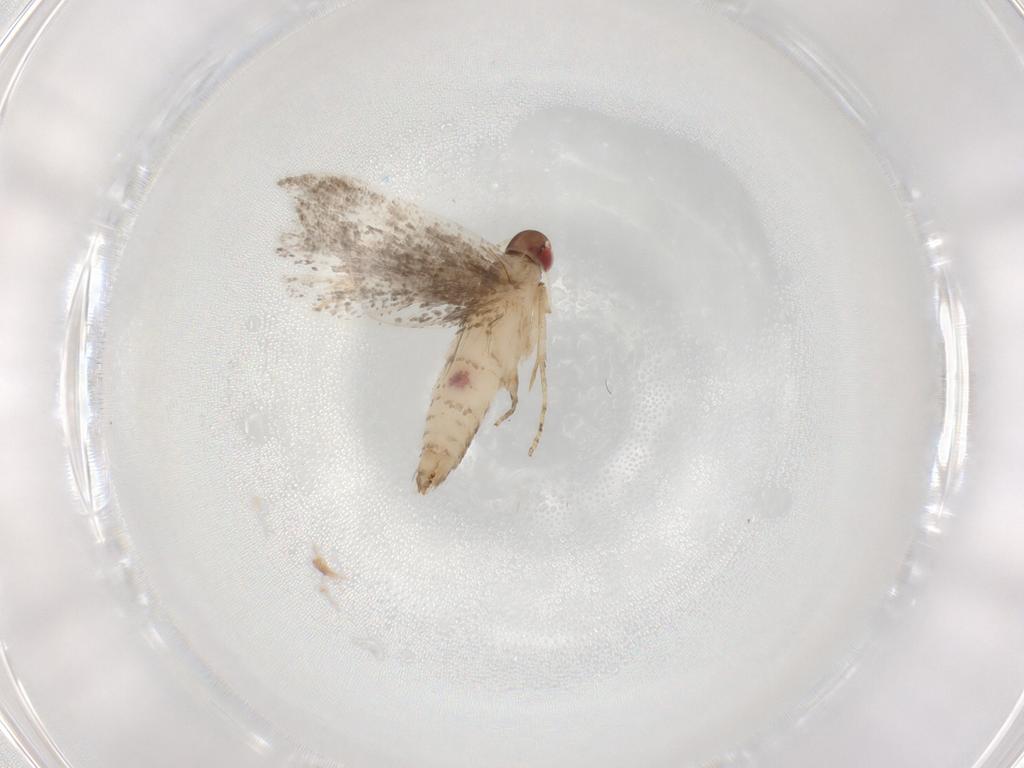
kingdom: Animalia
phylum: Arthropoda
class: Insecta
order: Lepidoptera
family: Gelechiidae
